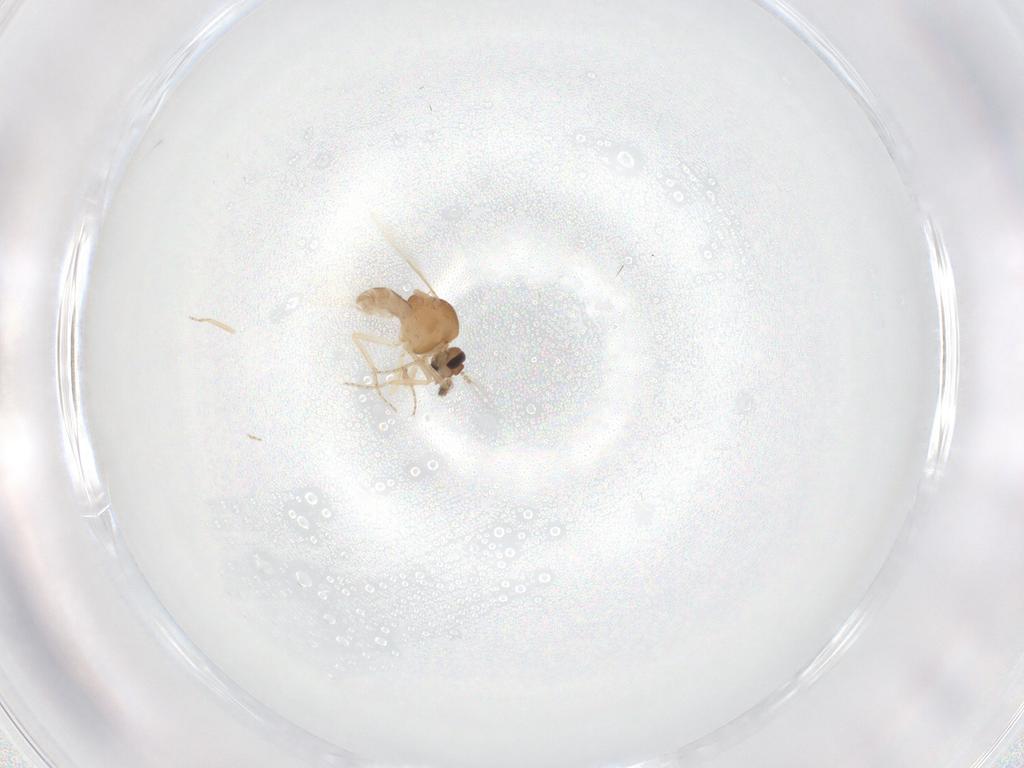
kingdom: Animalia
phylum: Arthropoda
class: Insecta
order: Diptera
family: Ceratopogonidae
